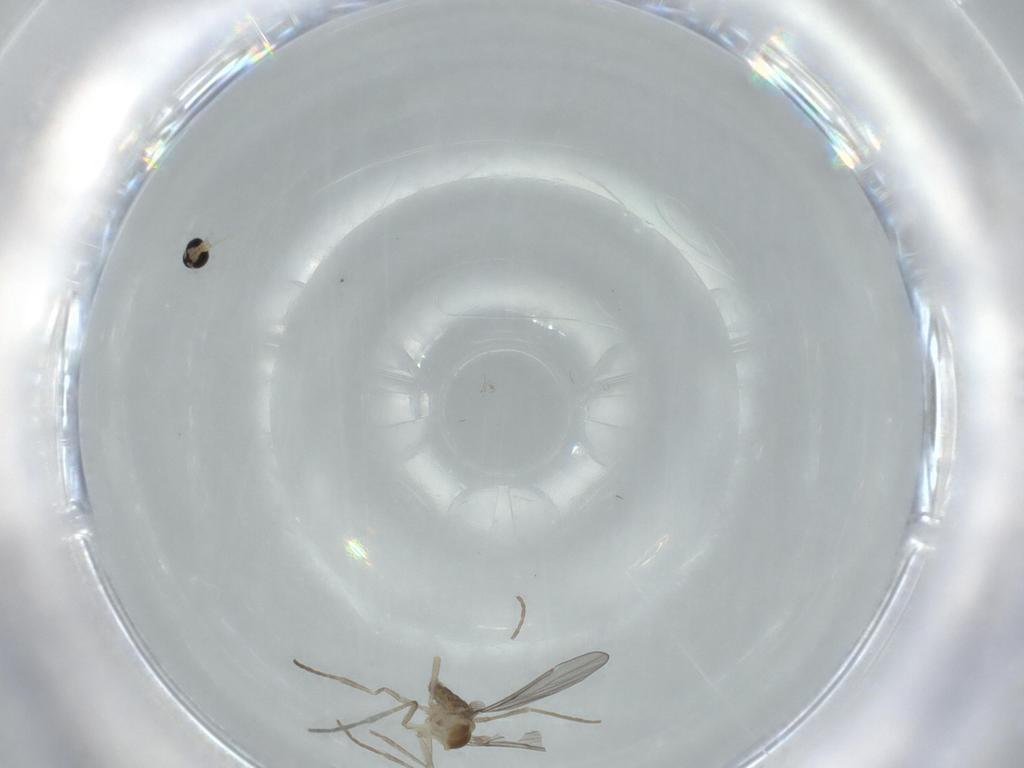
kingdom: Animalia
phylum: Arthropoda
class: Insecta
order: Diptera
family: Cecidomyiidae
